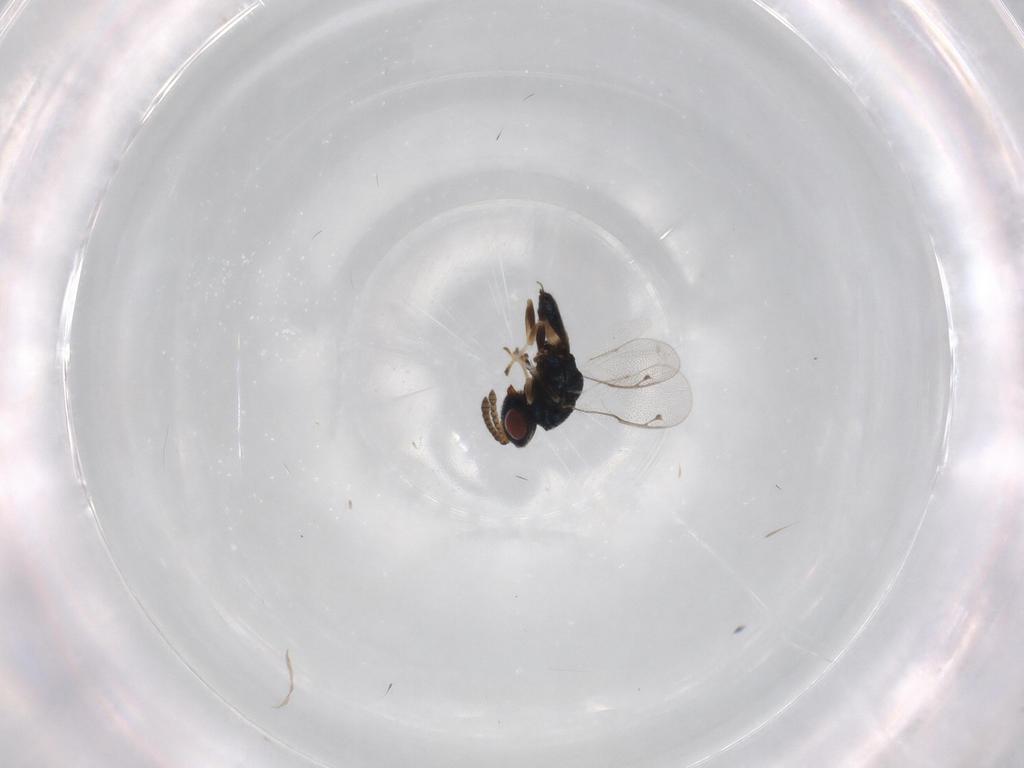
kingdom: Animalia
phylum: Arthropoda
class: Insecta
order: Hymenoptera
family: Pteromalidae
